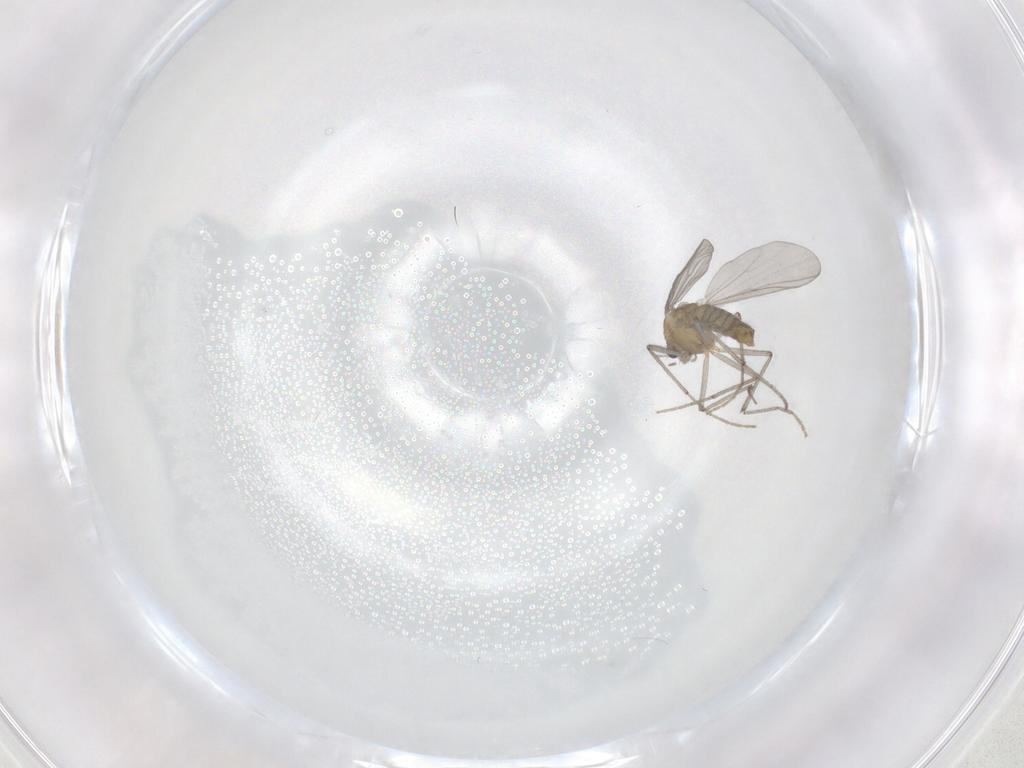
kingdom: Animalia
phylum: Arthropoda
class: Insecta
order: Diptera
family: Chironomidae
